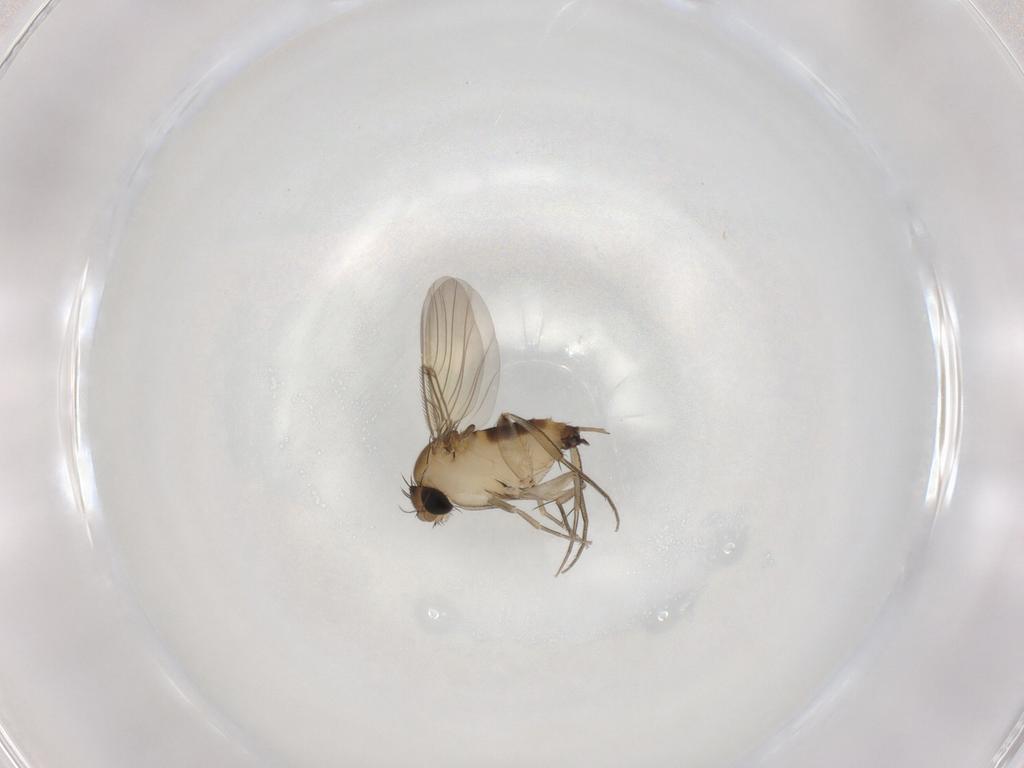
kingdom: Animalia
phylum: Arthropoda
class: Insecta
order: Diptera
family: Phoridae
